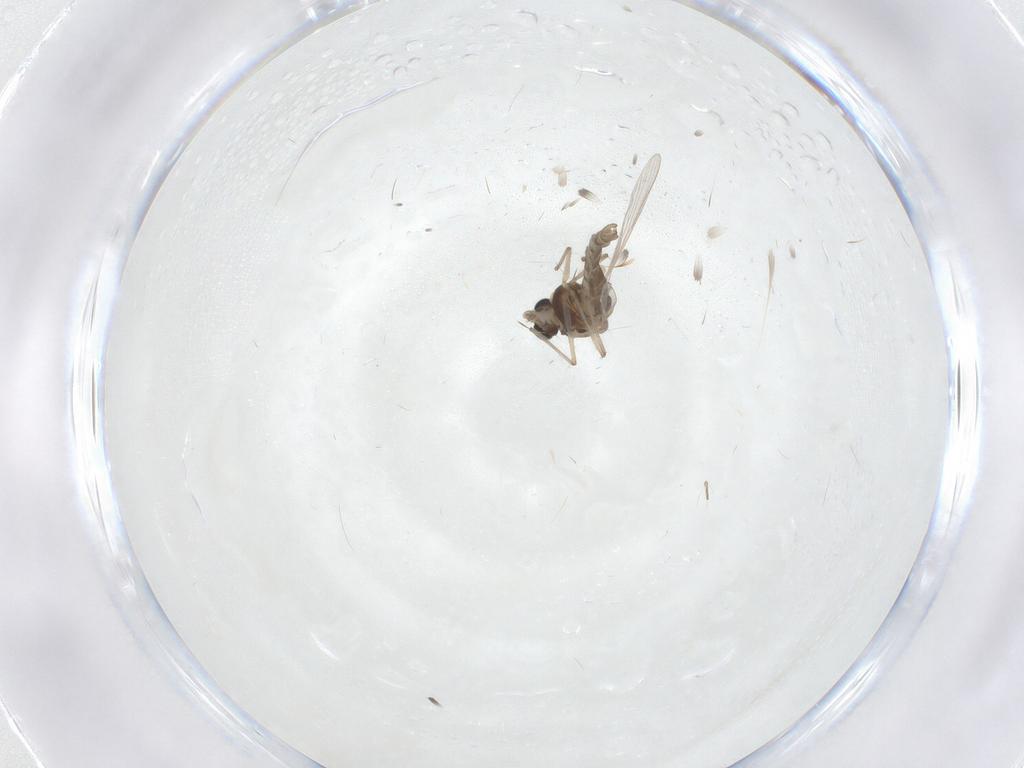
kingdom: Animalia
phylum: Arthropoda
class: Insecta
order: Diptera
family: Chironomidae
